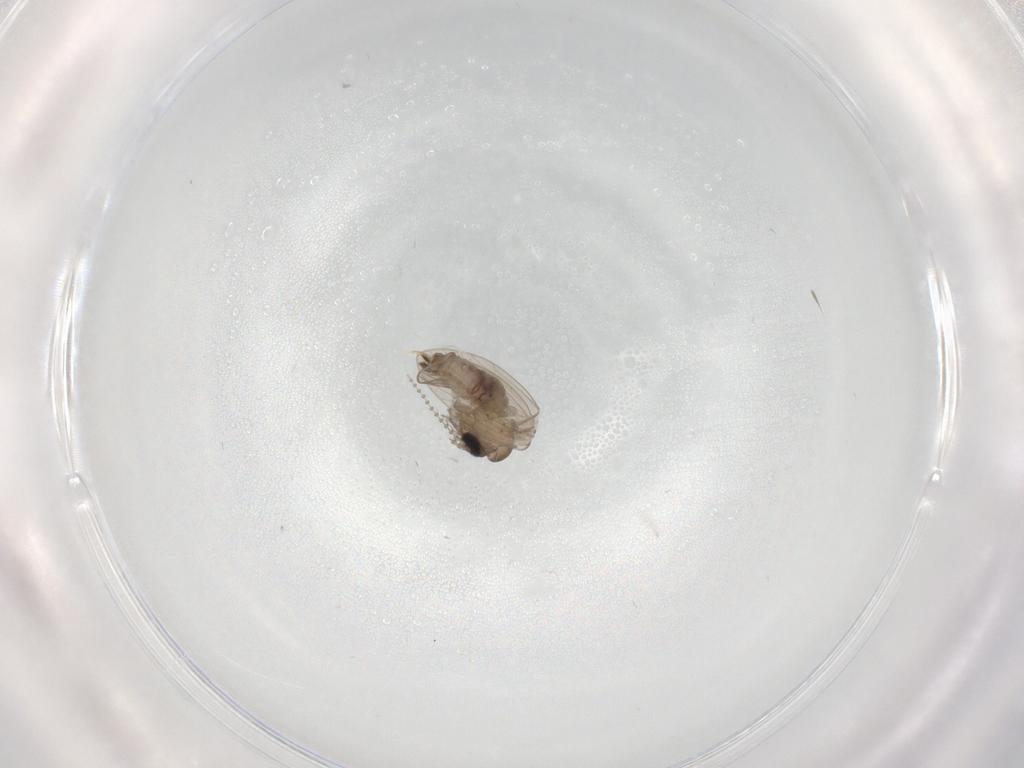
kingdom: Animalia
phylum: Arthropoda
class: Insecta
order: Diptera
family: Psychodidae
